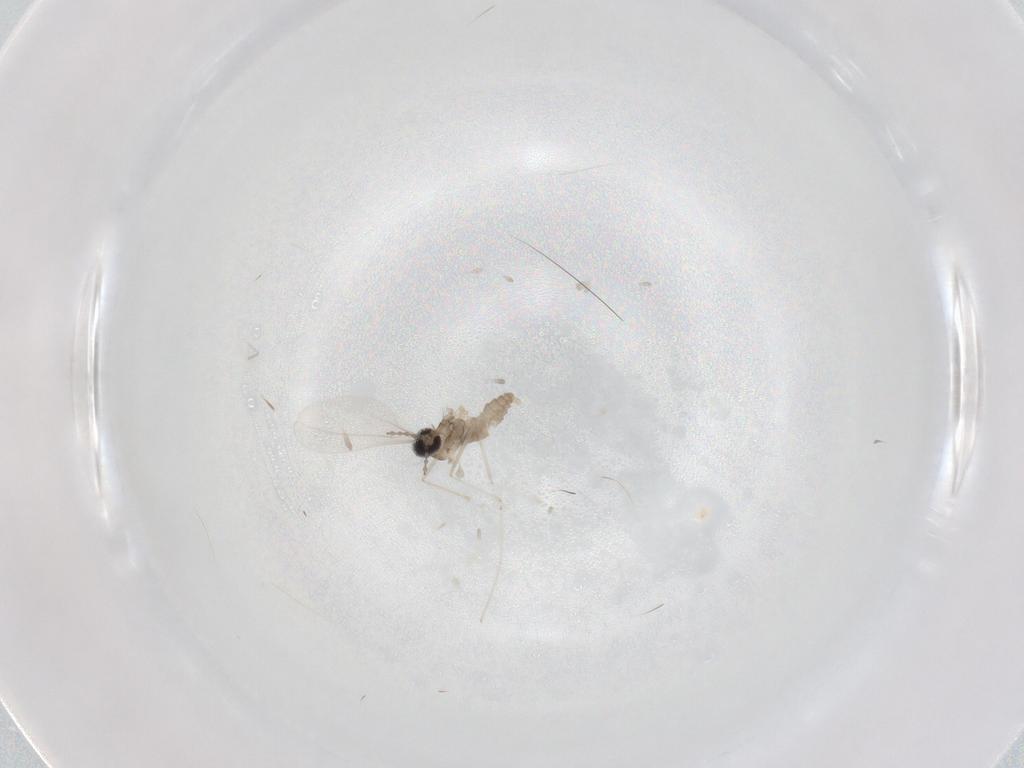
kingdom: Animalia
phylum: Arthropoda
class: Insecta
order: Diptera
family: Cecidomyiidae
